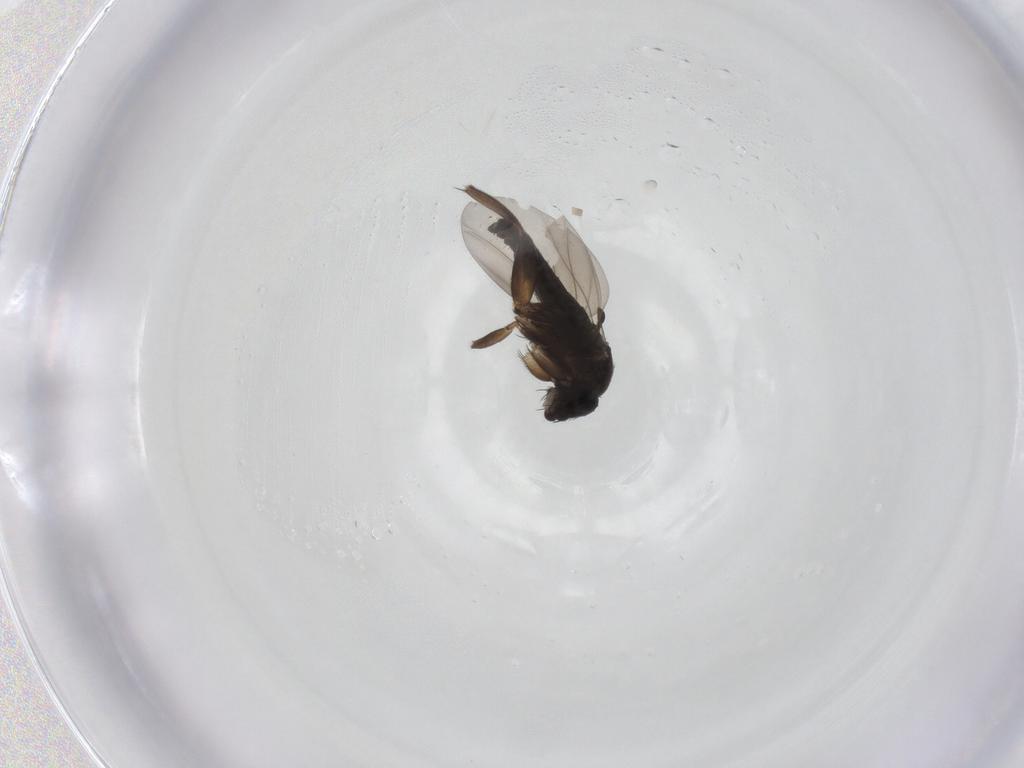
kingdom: Animalia
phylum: Arthropoda
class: Insecta
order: Diptera
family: Phoridae
